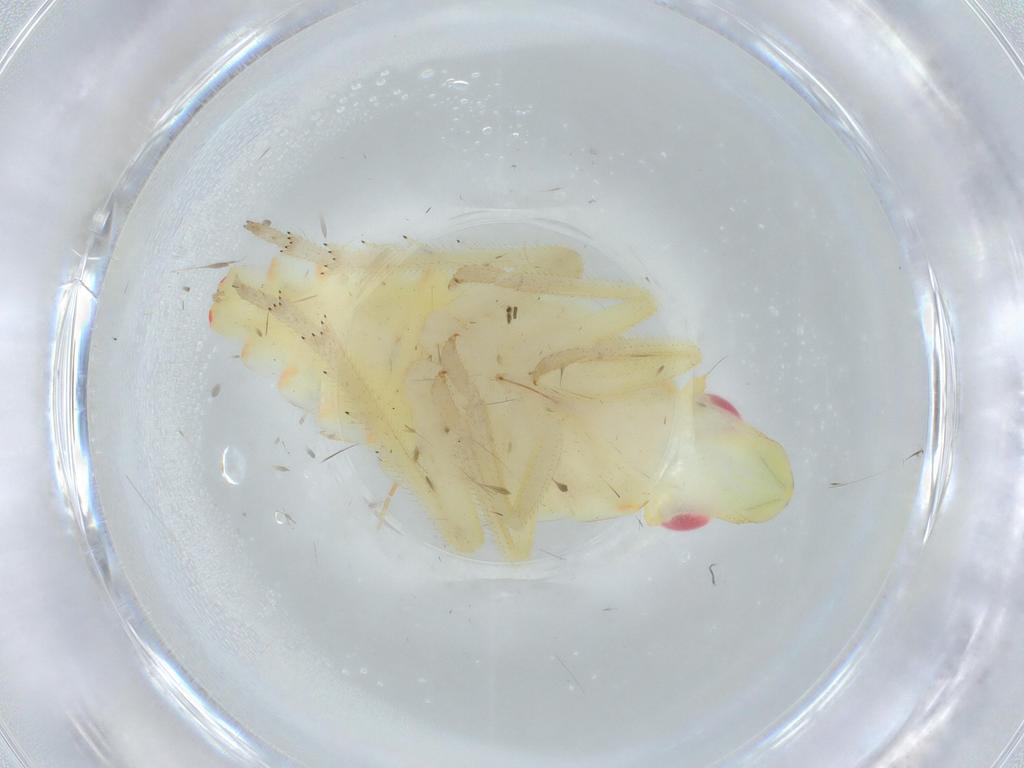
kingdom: Animalia
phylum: Arthropoda
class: Insecta
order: Hemiptera
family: Tropiduchidae
